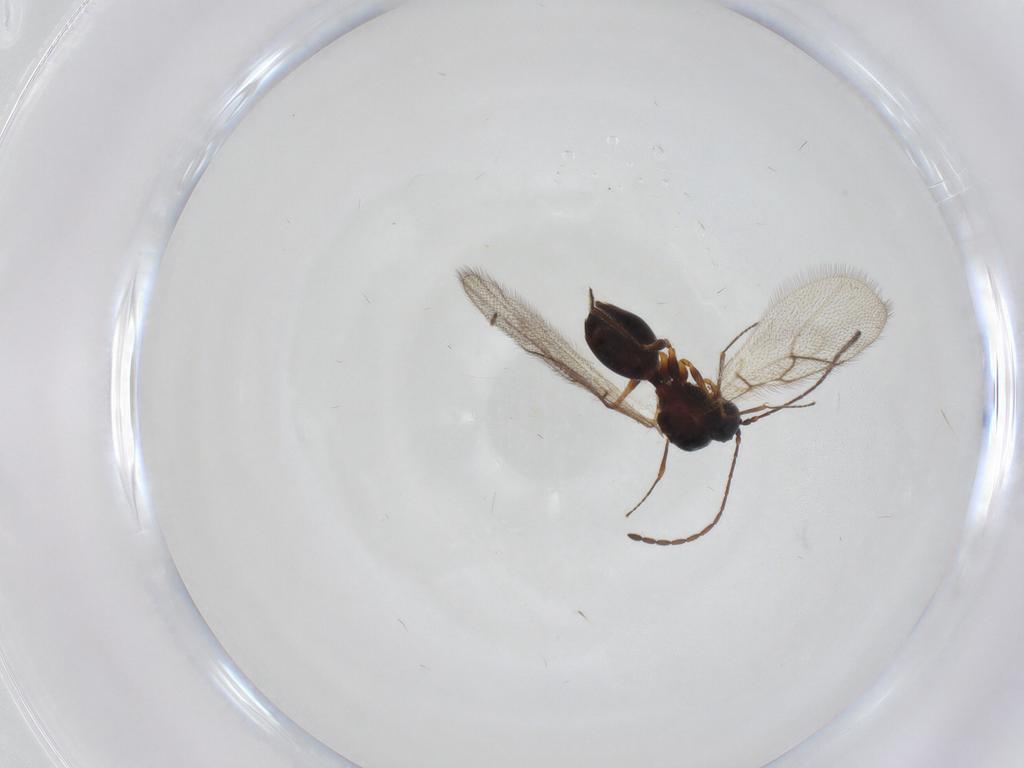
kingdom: Animalia
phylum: Arthropoda
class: Insecta
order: Hymenoptera
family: Figitidae
